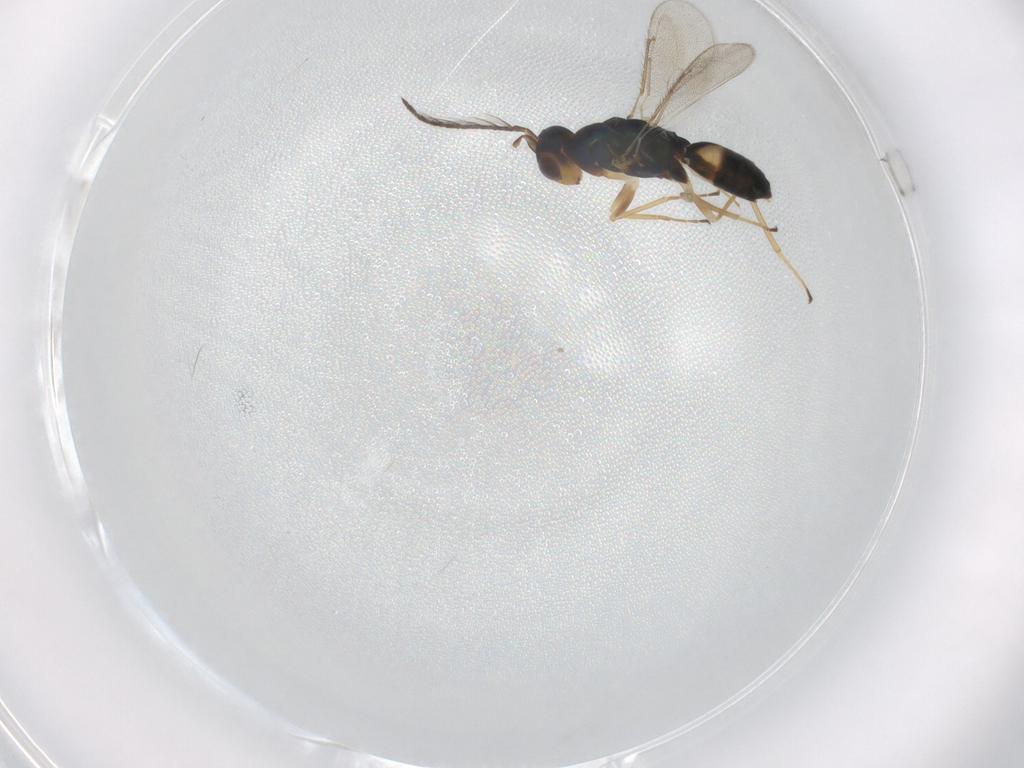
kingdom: Animalia
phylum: Arthropoda
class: Insecta
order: Hymenoptera
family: Eulophidae
